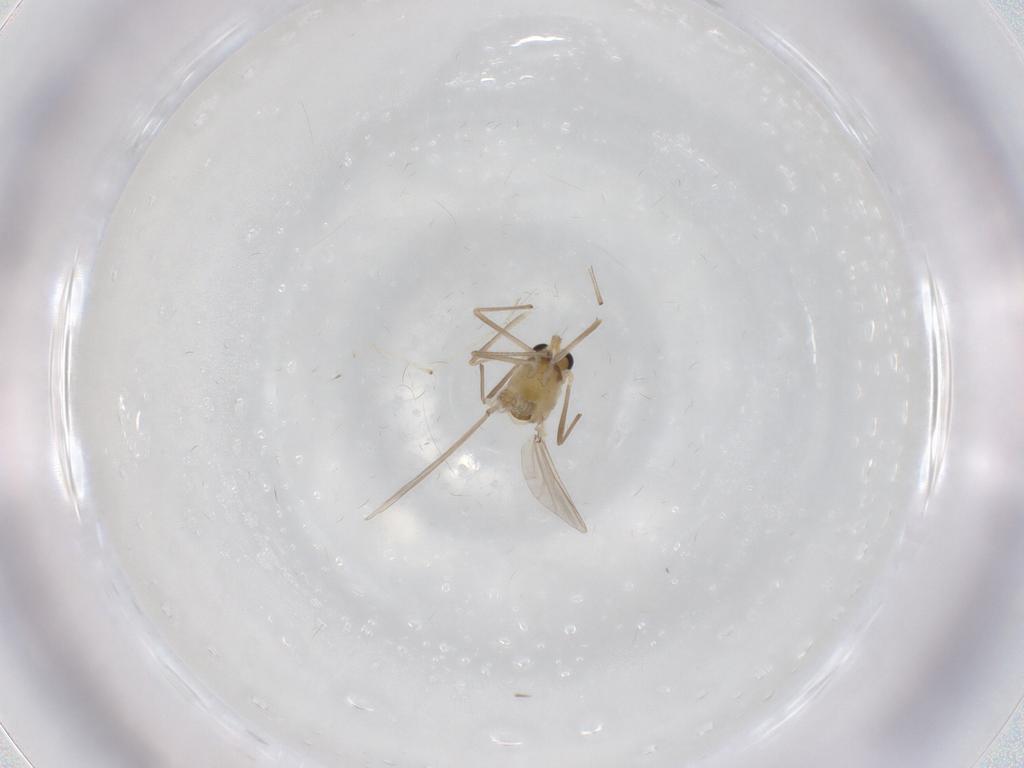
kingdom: Animalia
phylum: Arthropoda
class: Insecta
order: Diptera
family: Chironomidae
